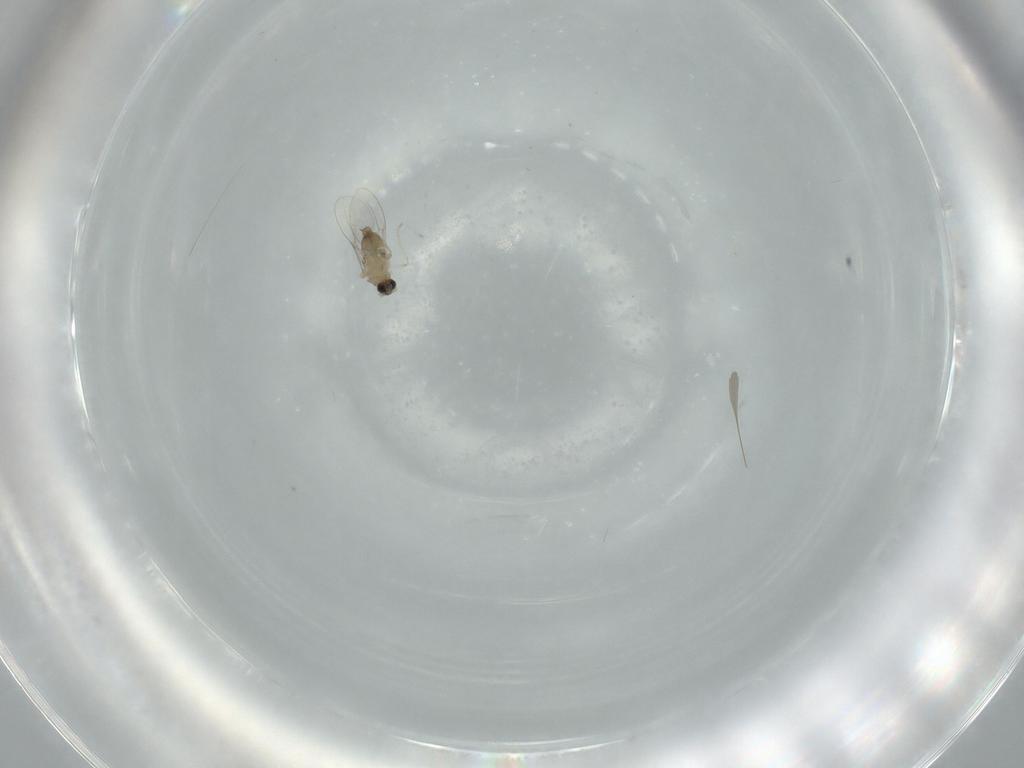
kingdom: Animalia
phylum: Arthropoda
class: Insecta
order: Diptera
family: Cecidomyiidae
